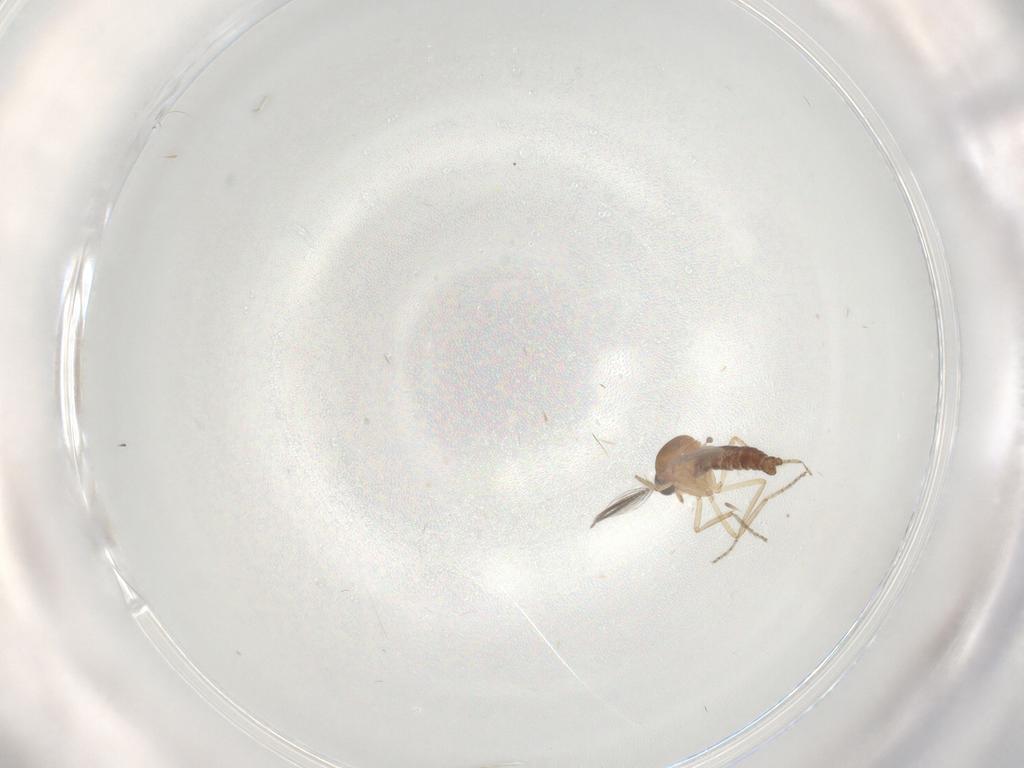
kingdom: Animalia
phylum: Arthropoda
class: Insecta
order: Diptera
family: Ceratopogonidae
